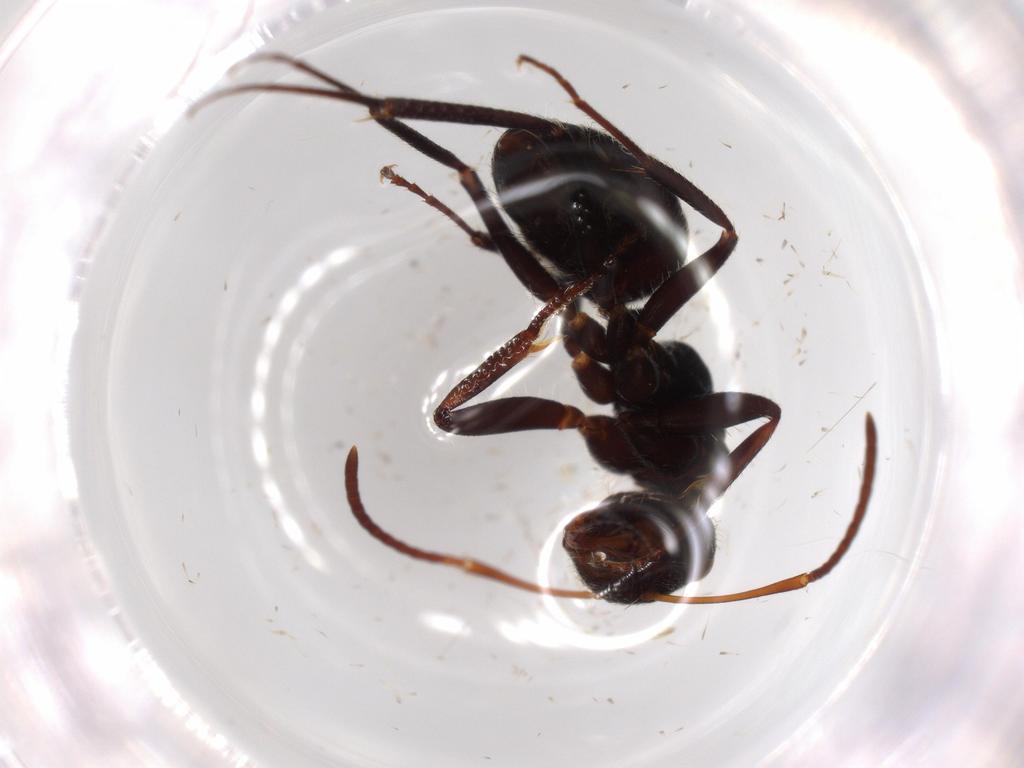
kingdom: Animalia
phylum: Arthropoda
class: Insecta
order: Hymenoptera
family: Formicidae
